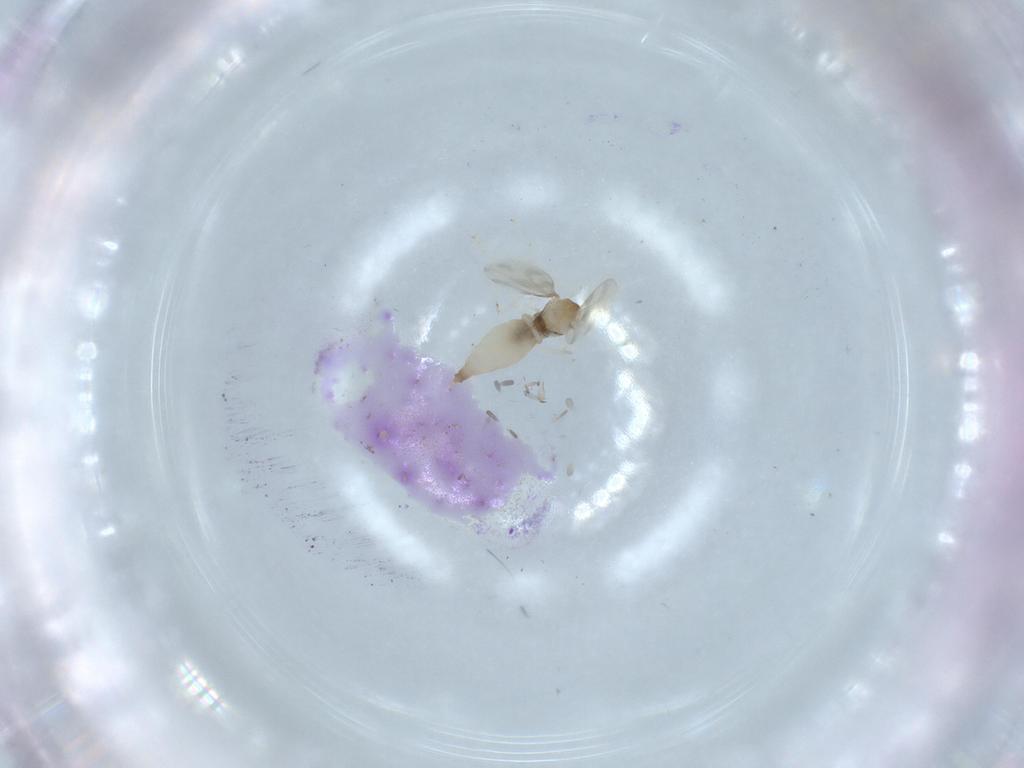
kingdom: Animalia
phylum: Arthropoda
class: Insecta
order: Diptera
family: Cecidomyiidae
